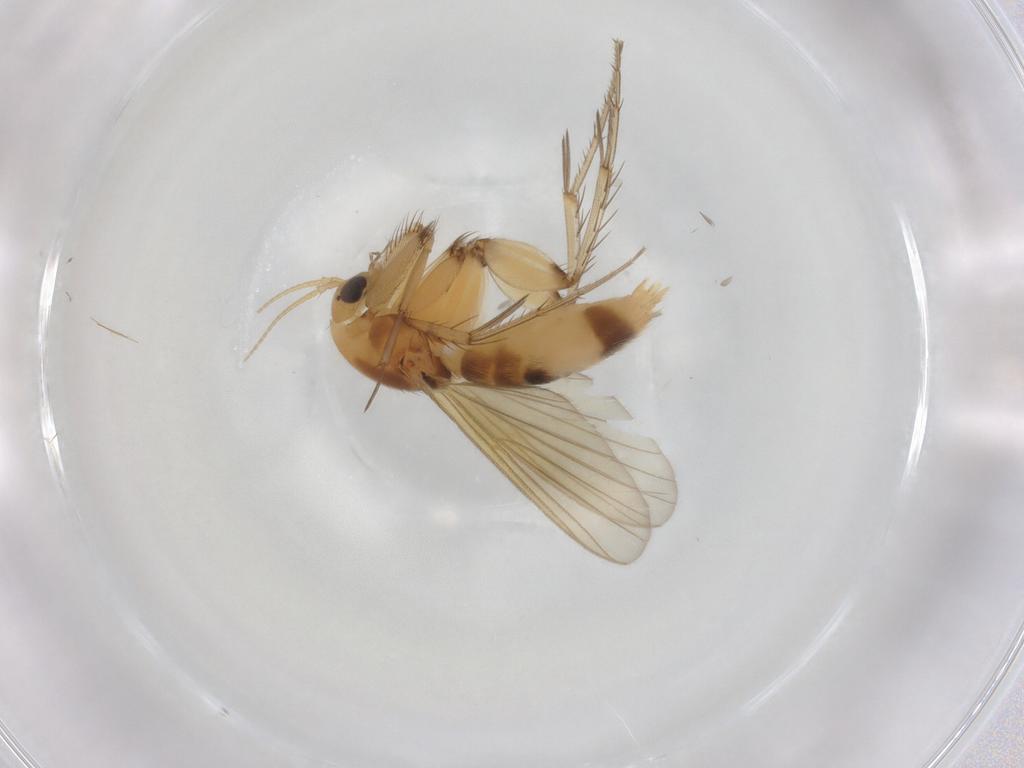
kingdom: Animalia
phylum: Arthropoda
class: Insecta
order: Diptera
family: Mycetophilidae
